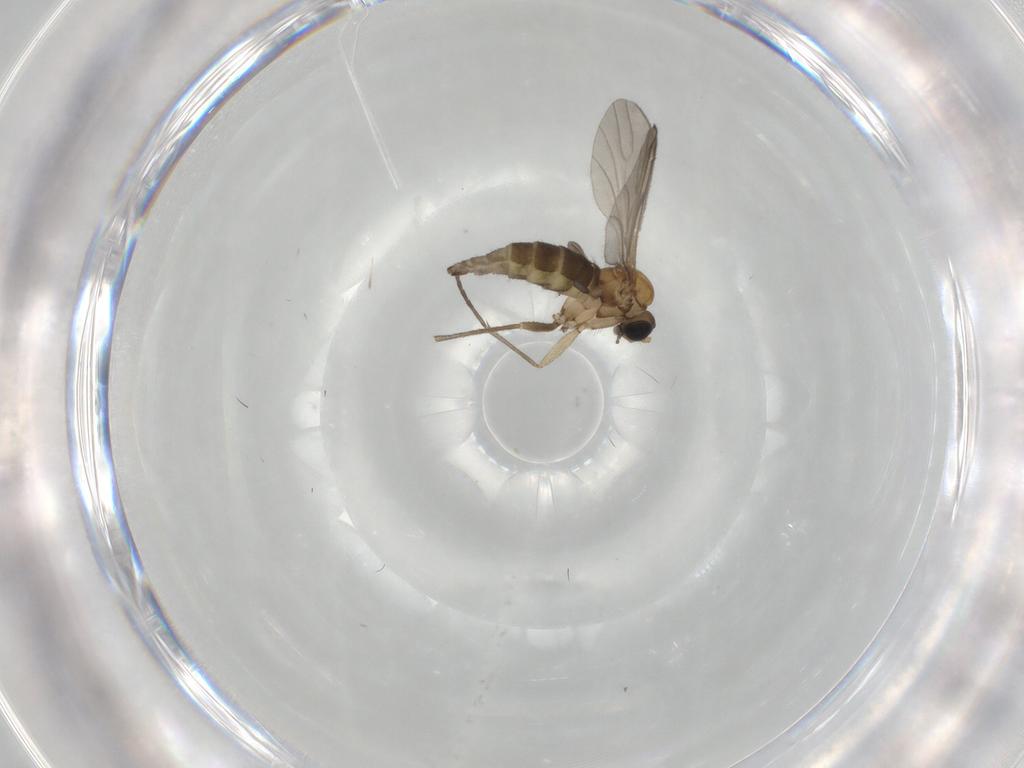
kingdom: Animalia
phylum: Arthropoda
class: Insecta
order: Diptera
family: Sciaridae
